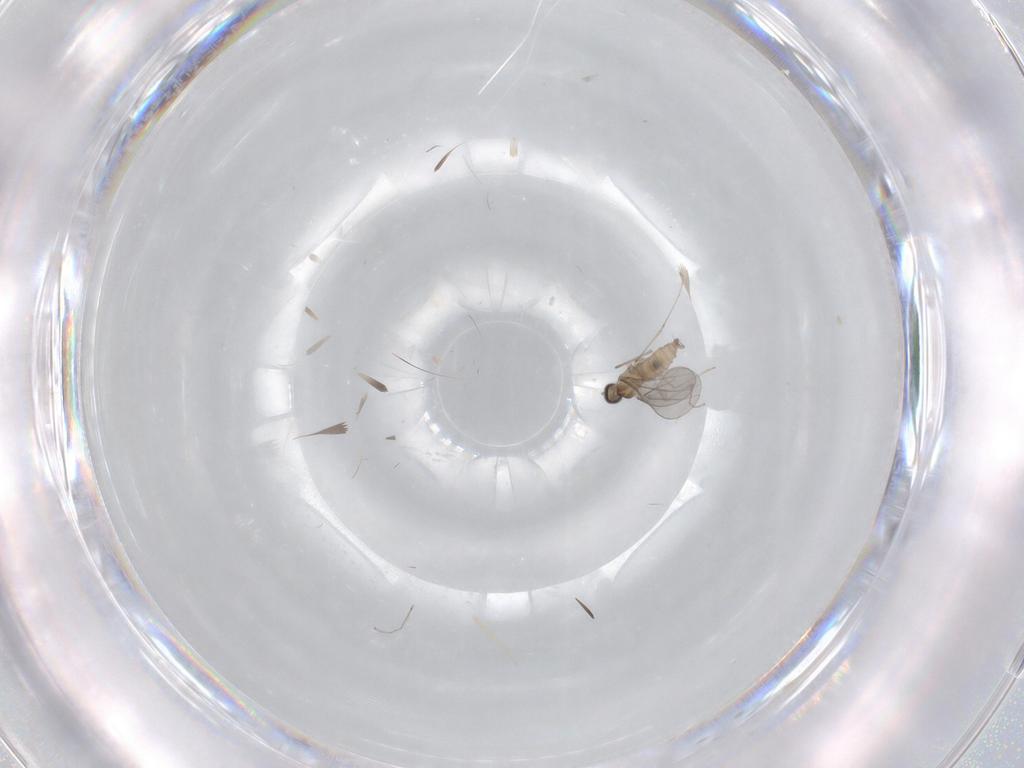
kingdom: Animalia
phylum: Arthropoda
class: Insecta
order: Diptera
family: Cecidomyiidae
